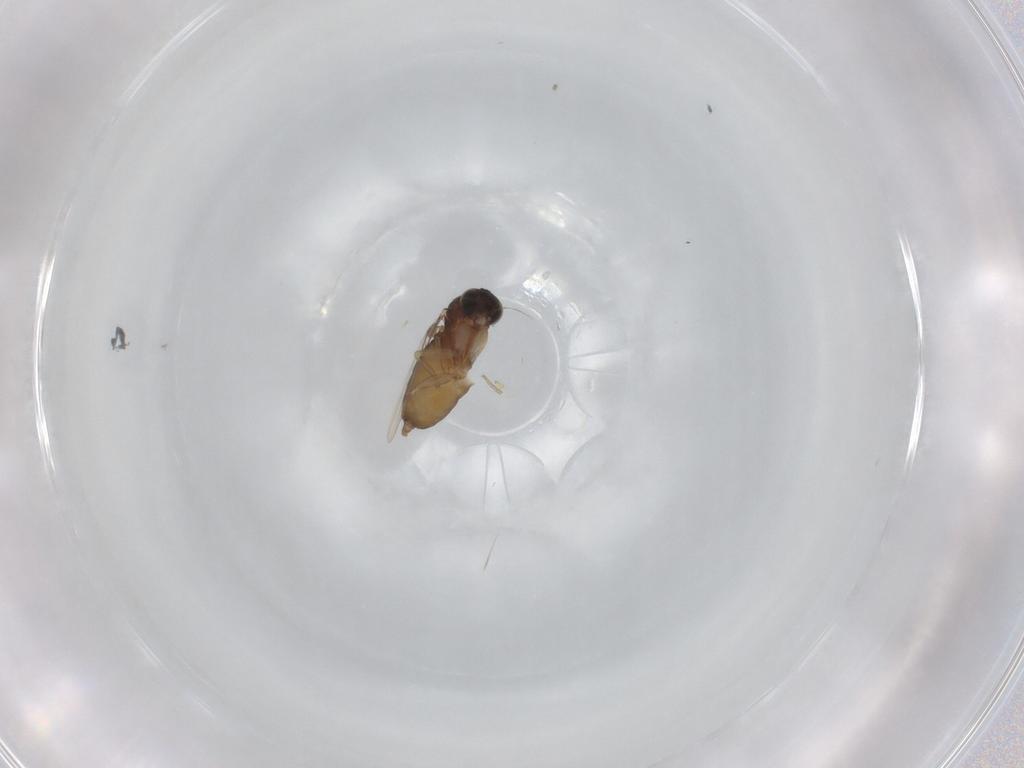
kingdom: Animalia
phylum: Arthropoda
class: Insecta
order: Diptera
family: Phoridae
